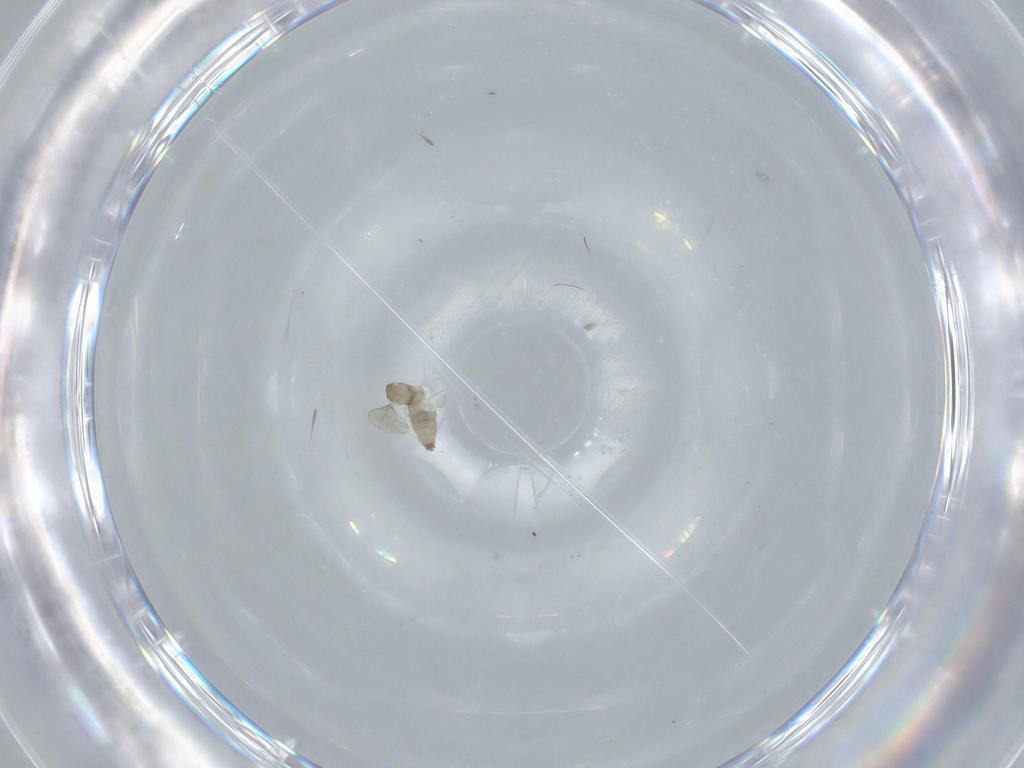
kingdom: Animalia
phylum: Arthropoda
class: Insecta
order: Diptera
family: Cecidomyiidae
